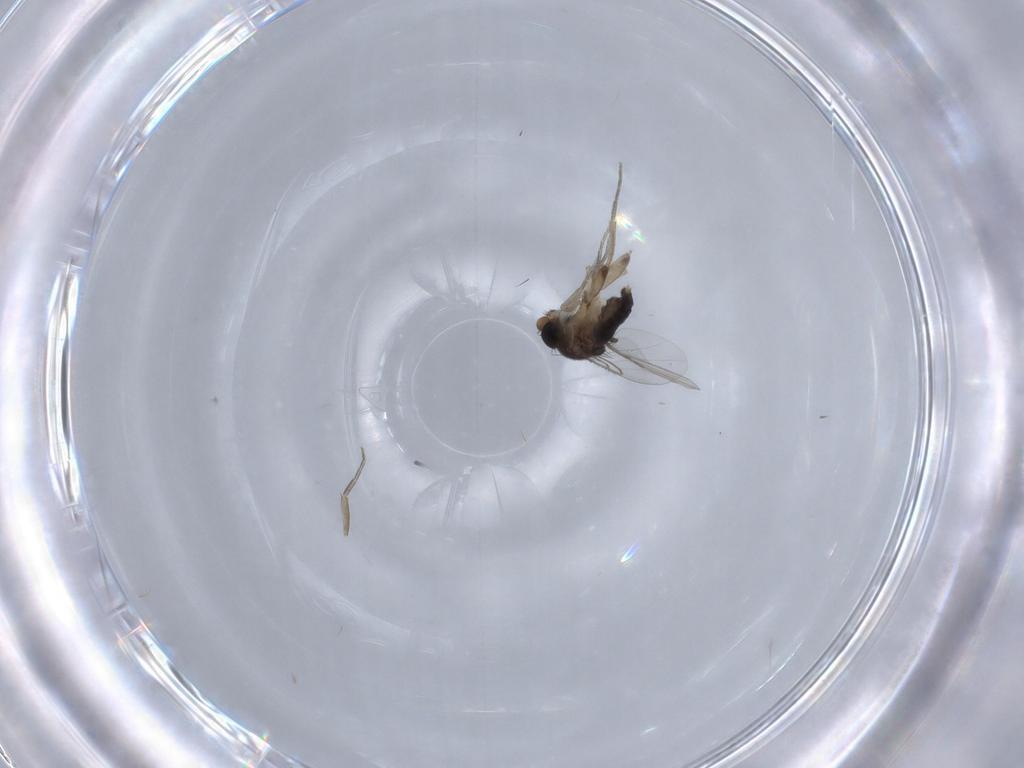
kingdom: Animalia
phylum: Arthropoda
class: Insecta
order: Diptera
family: Phoridae
